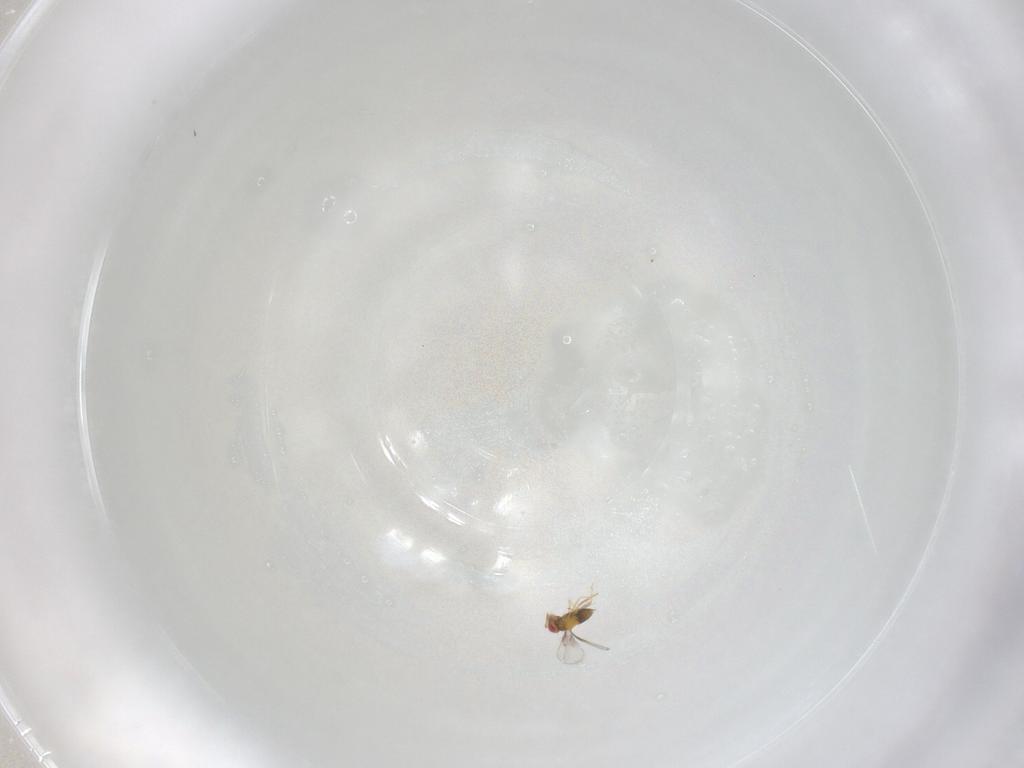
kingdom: Animalia
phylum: Arthropoda
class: Insecta
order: Hymenoptera
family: Trichogrammatidae
